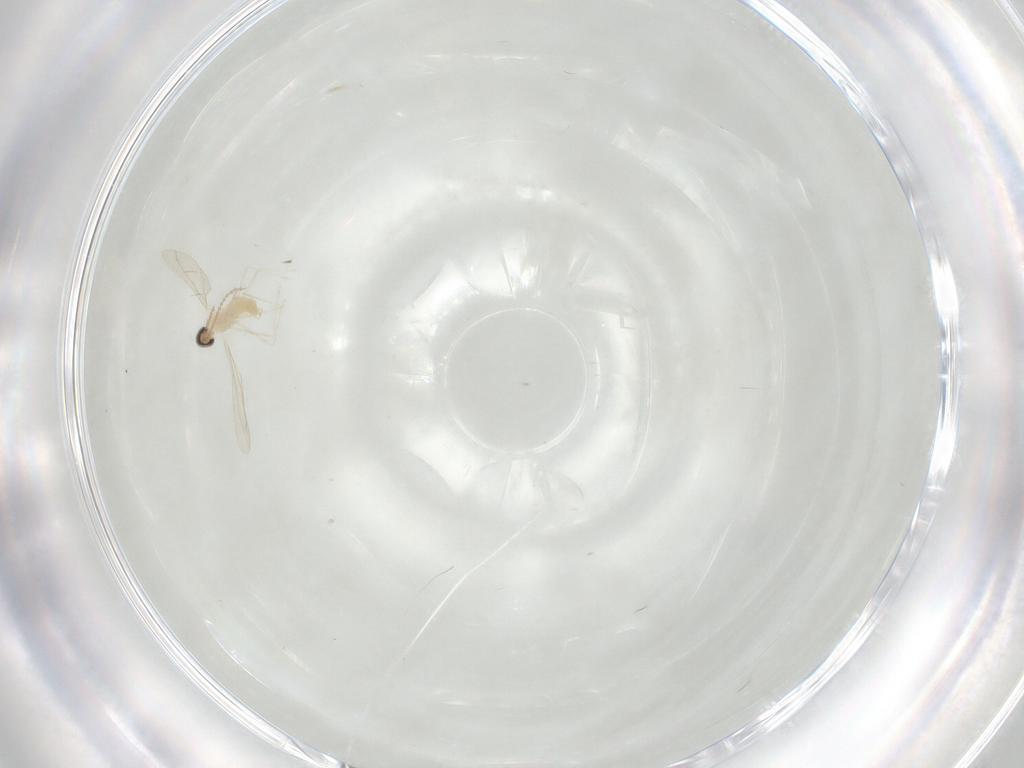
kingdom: Animalia
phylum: Arthropoda
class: Insecta
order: Diptera
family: Cecidomyiidae
